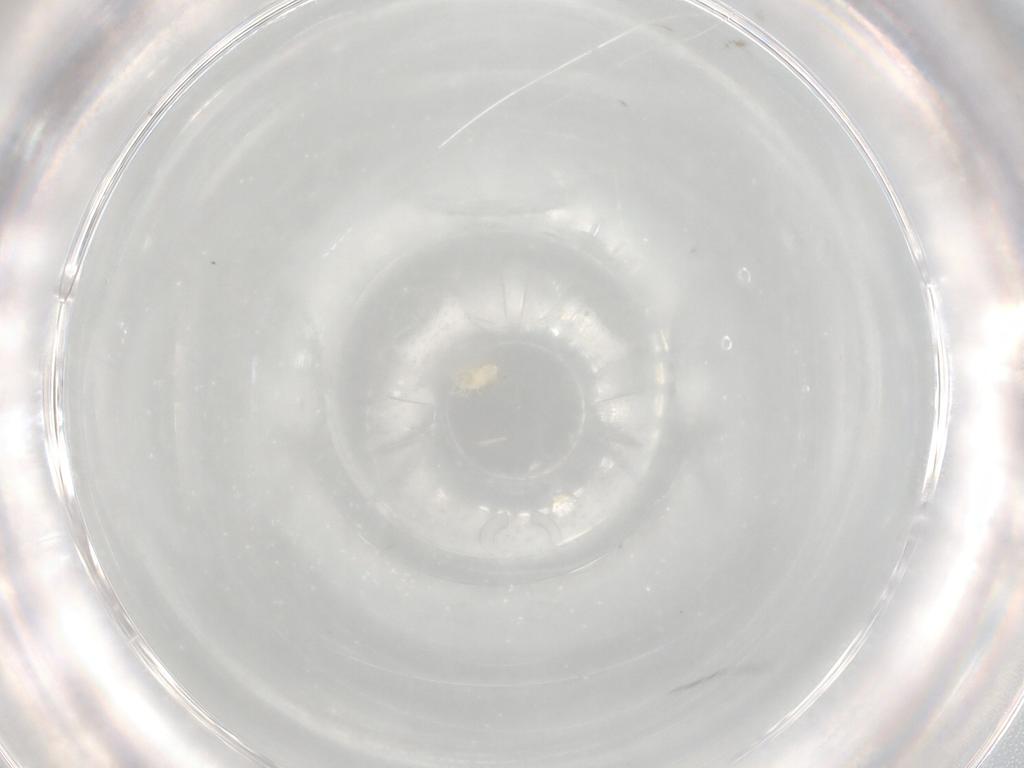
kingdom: Animalia
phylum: Arthropoda
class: Arachnida
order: Trombidiformes
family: Eupodidae
